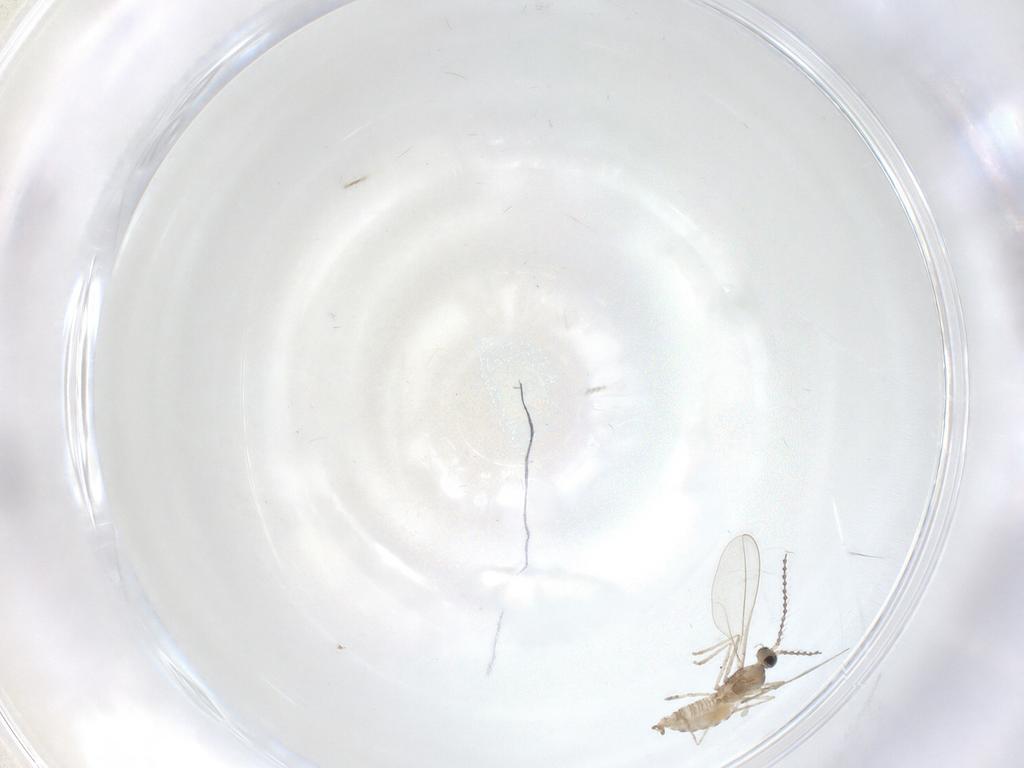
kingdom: Animalia
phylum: Arthropoda
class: Insecta
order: Diptera
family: Cecidomyiidae
